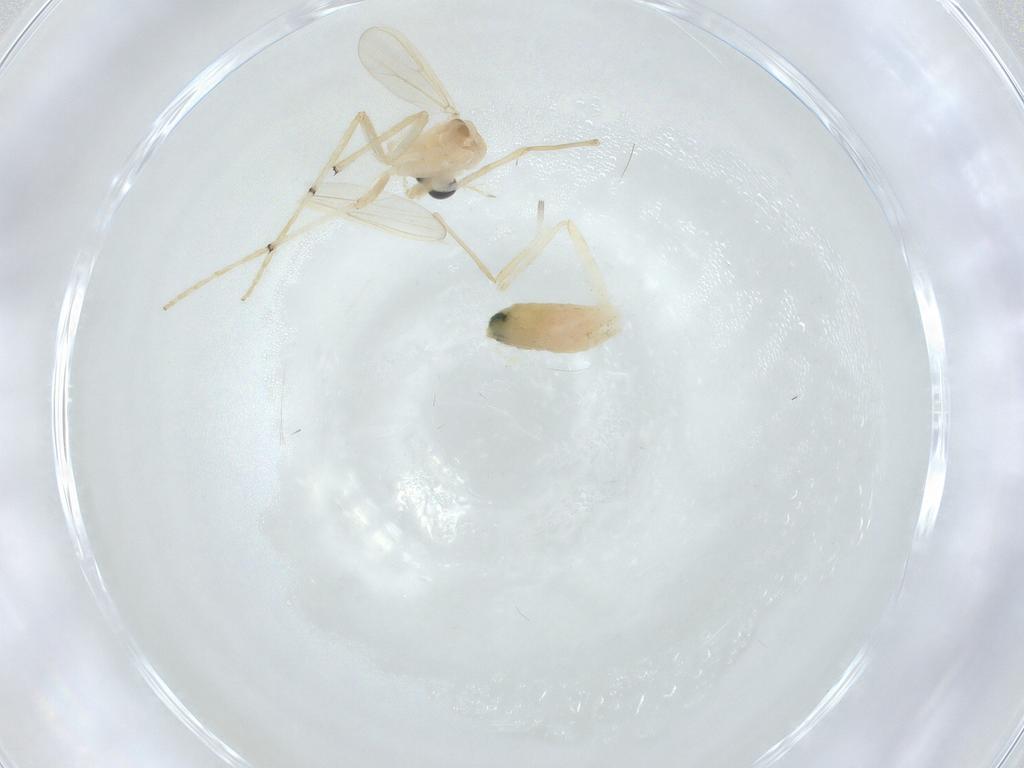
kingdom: Animalia
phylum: Arthropoda
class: Insecta
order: Diptera
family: Chironomidae
